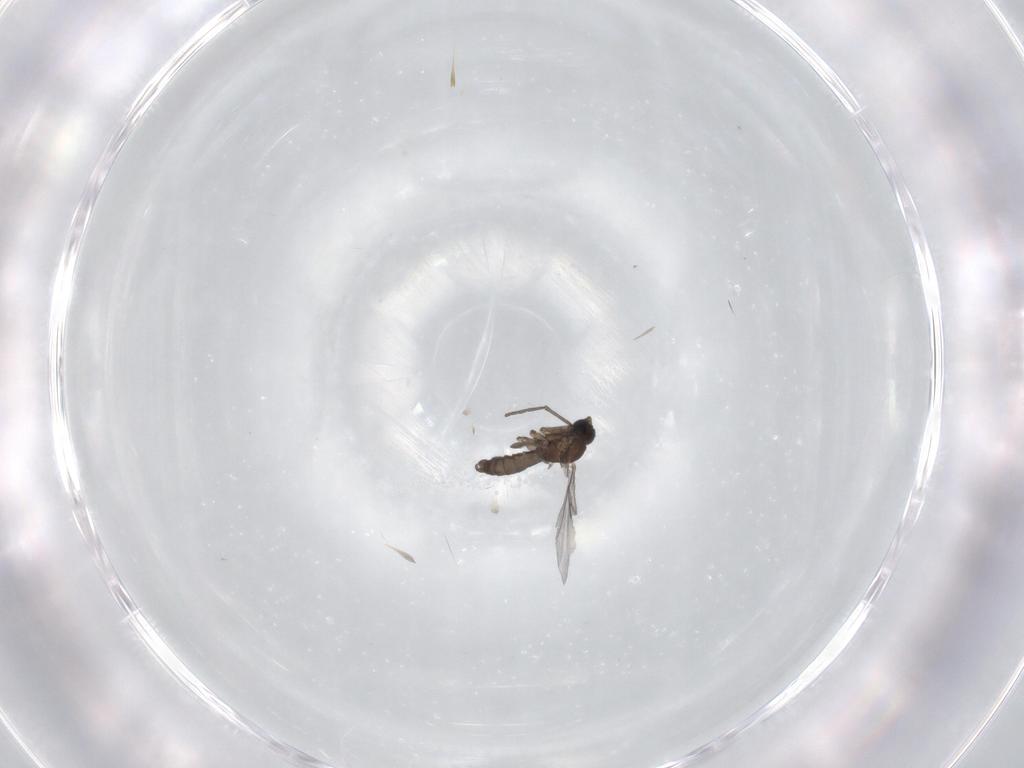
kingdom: Animalia
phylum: Arthropoda
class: Insecta
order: Diptera
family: Sciaridae
